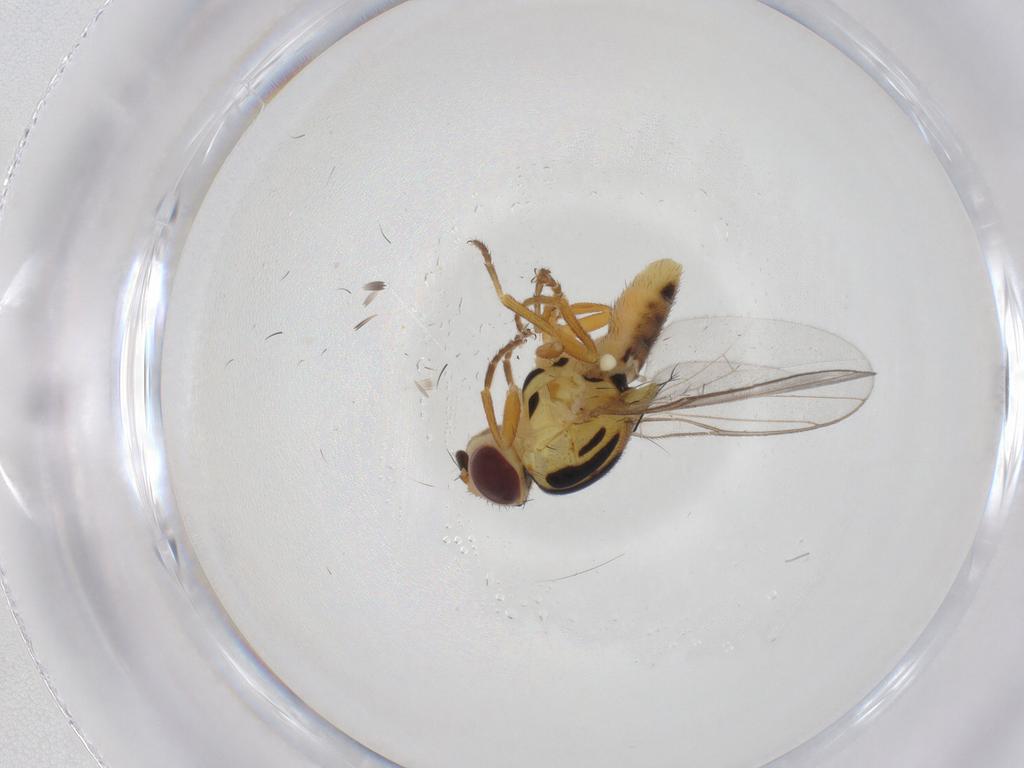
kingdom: Animalia
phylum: Arthropoda
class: Insecta
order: Diptera
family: Chloropidae
